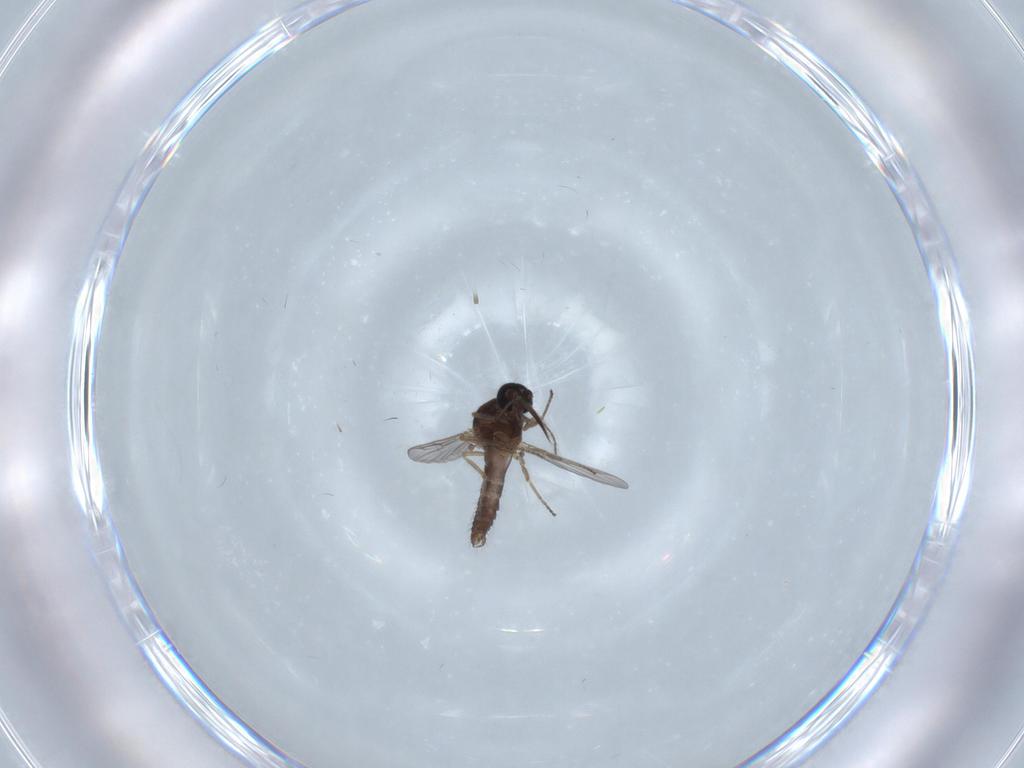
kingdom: Animalia
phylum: Arthropoda
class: Insecta
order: Diptera
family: Ceratopogonidae
